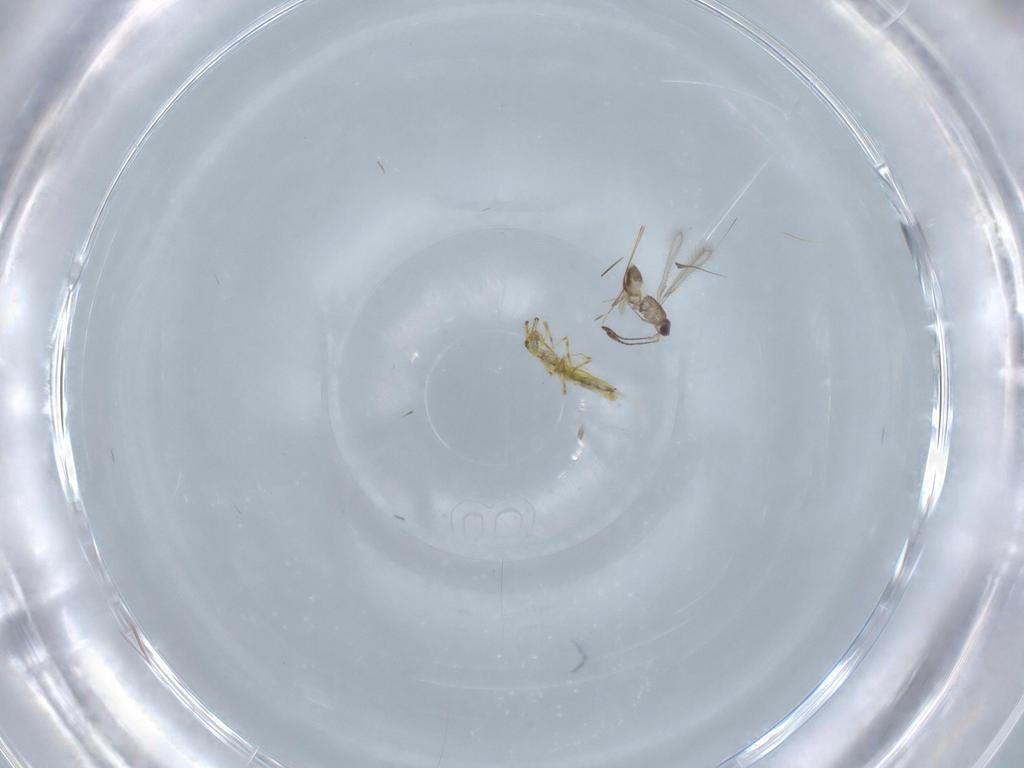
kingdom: Animalia
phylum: Arthropoda
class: Insecta
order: Hymenoptera
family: Mymaridae
